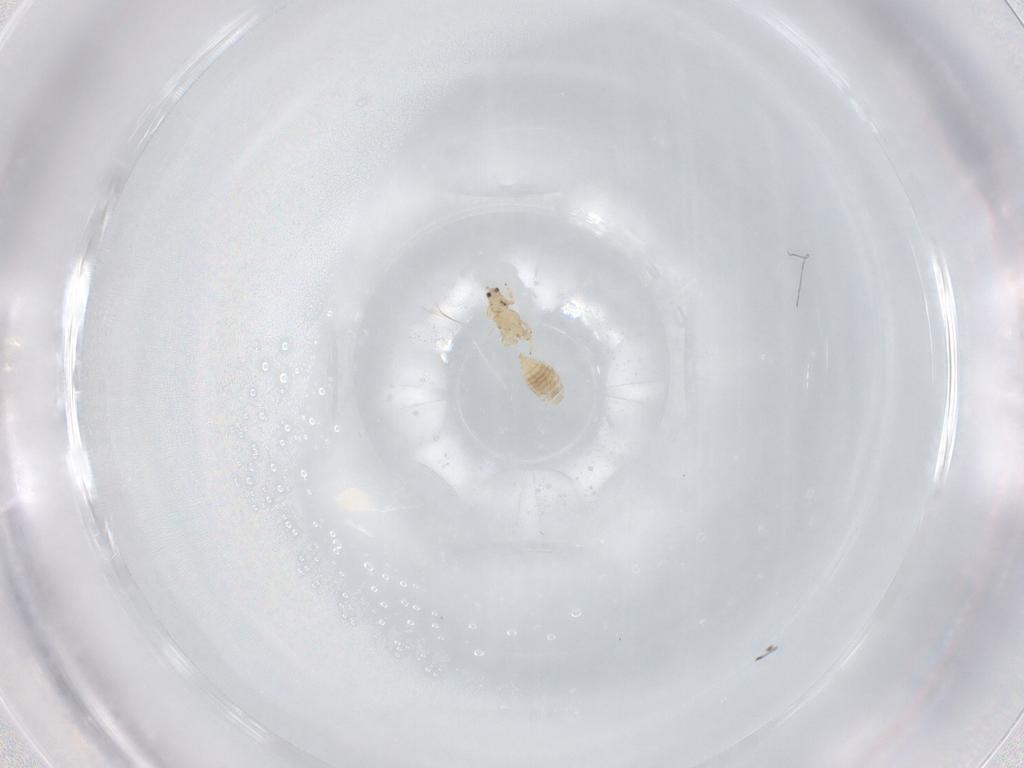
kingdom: Animalia
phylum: Arthropoda
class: Insecta
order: Thysanoptera
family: Thripidae
